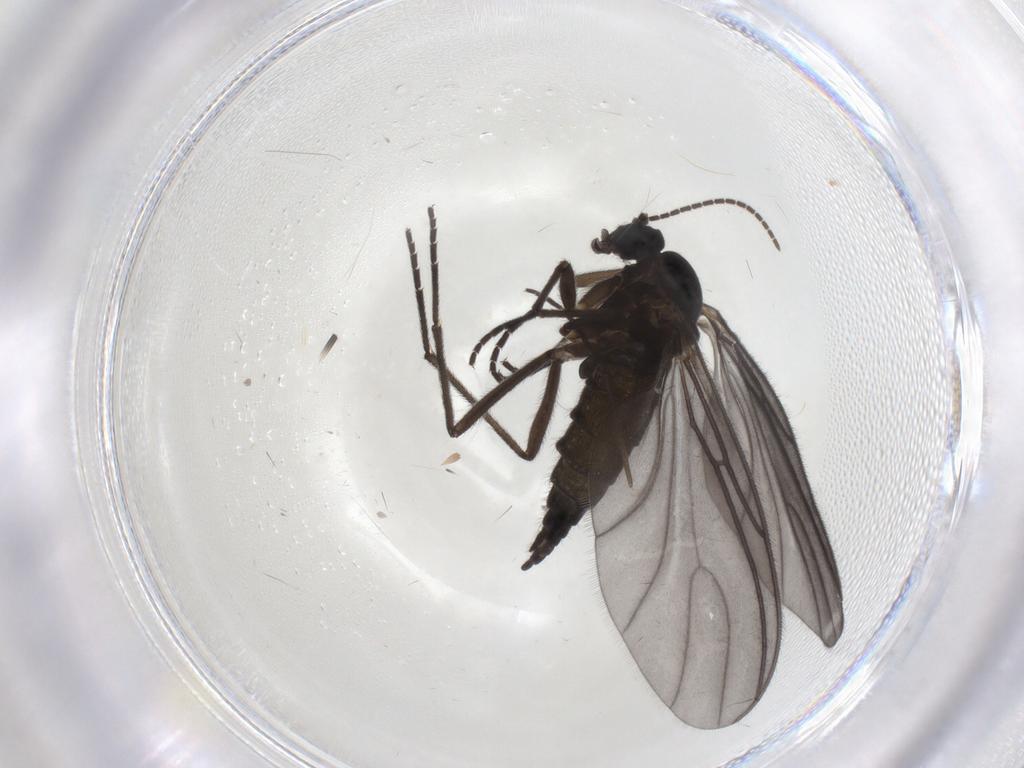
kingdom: Animalia
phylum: Arthropoda
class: Insecta
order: Diptera
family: Sciaridae
